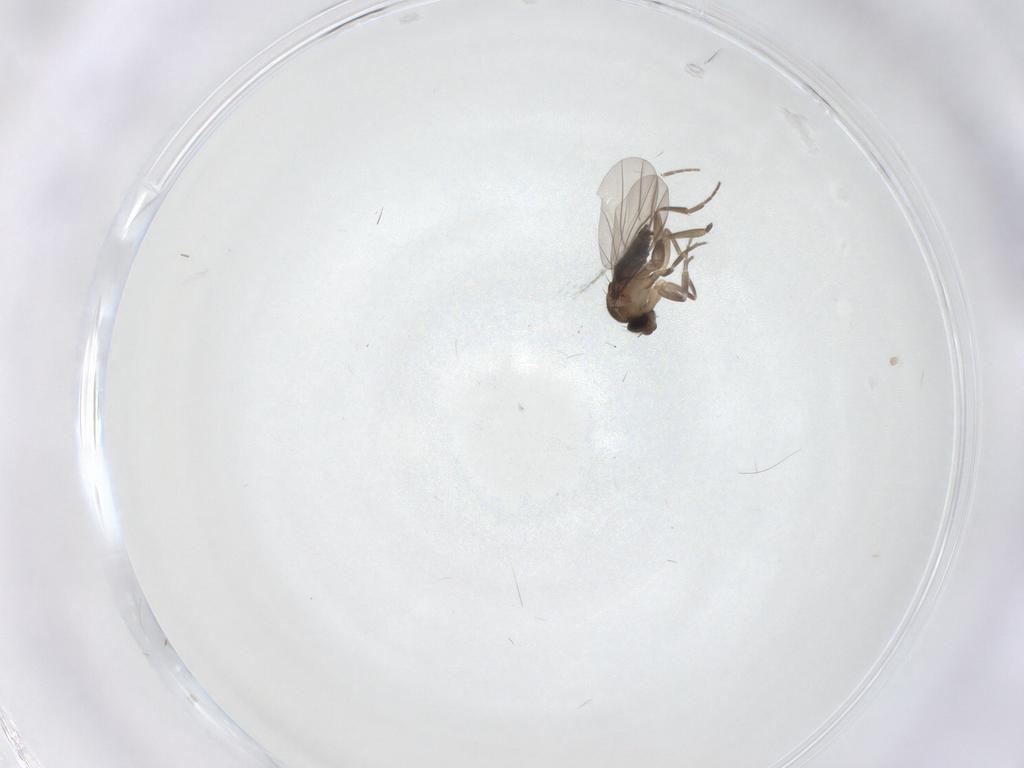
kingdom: Animalia
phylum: Arthropoda
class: Insecta
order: Diptera
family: Cecidomyiidae
